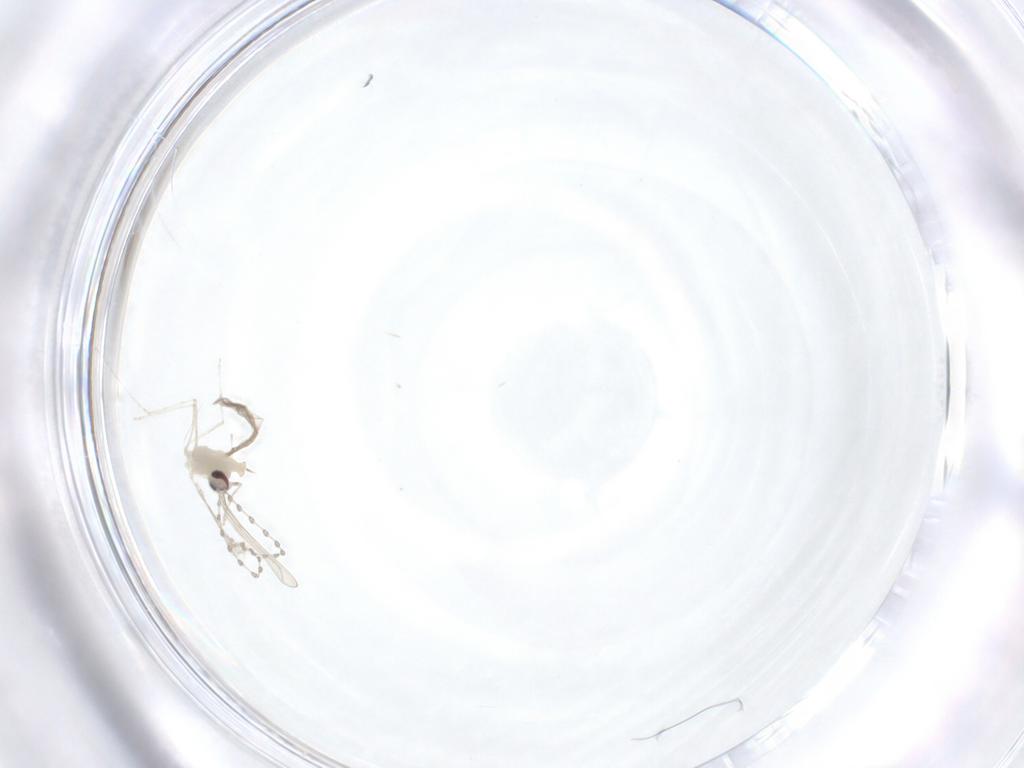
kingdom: Animalia
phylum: Arthropoda
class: Insecta
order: Diptera
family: Cecidomyiidae
